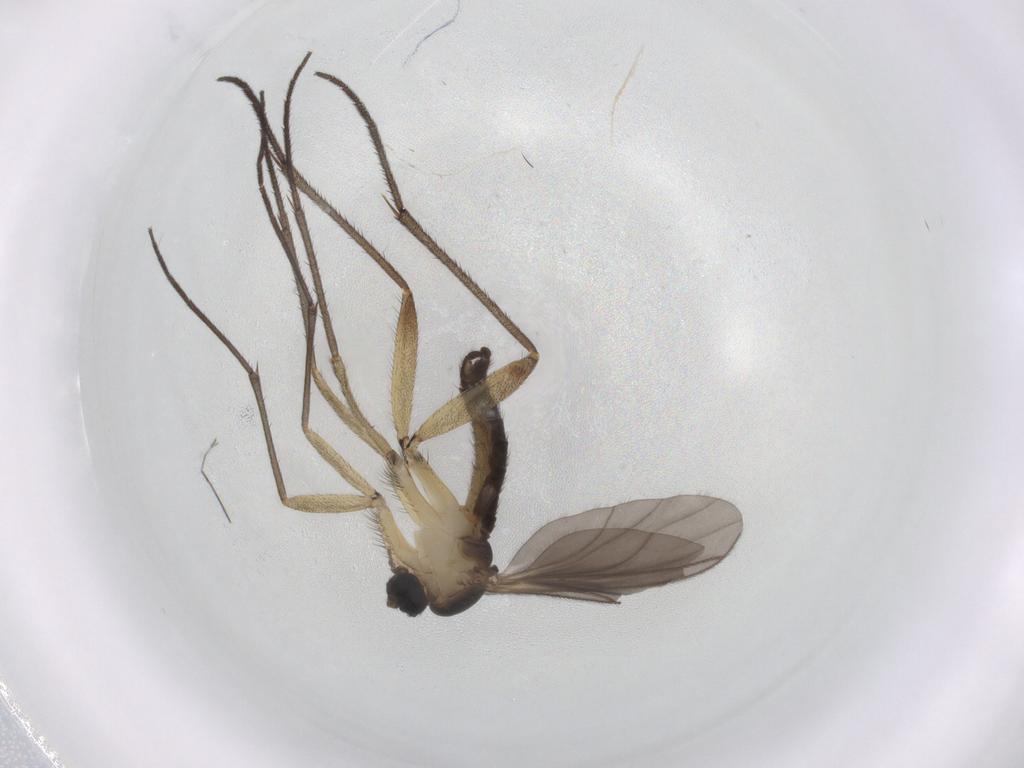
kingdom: Animalia
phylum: Arthropoda
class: Insecta
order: Diptera
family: Sciaridae
